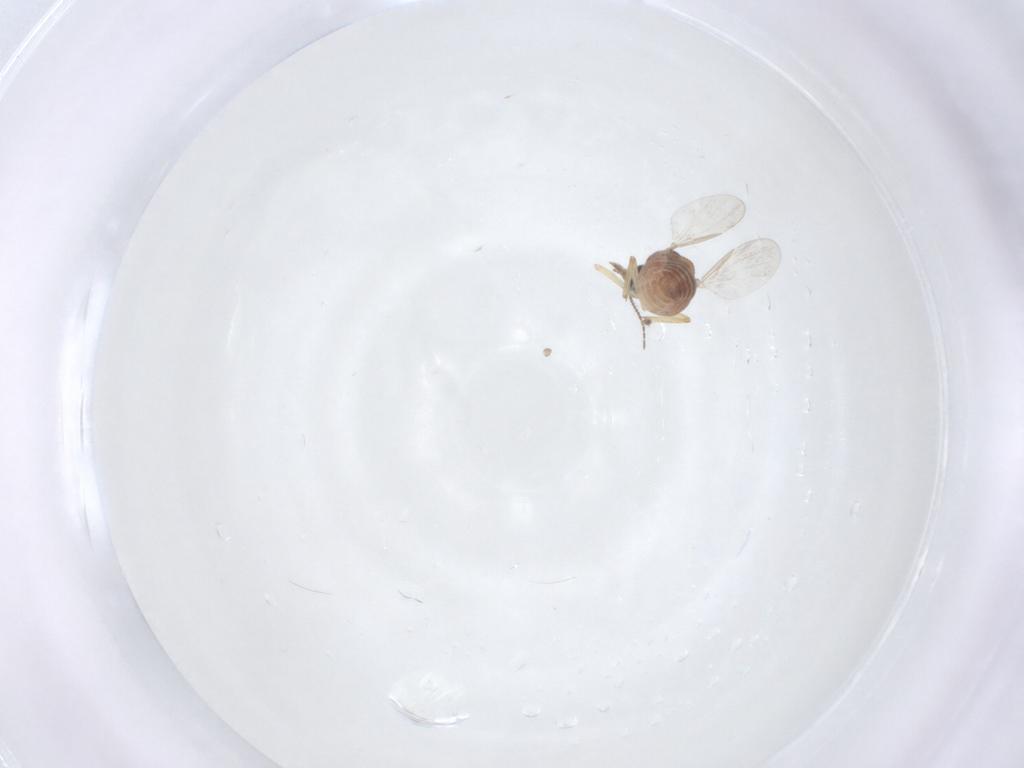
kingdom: Animalia
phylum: Arthropoda
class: Insecta
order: Diptera
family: Ceratopogonidae
